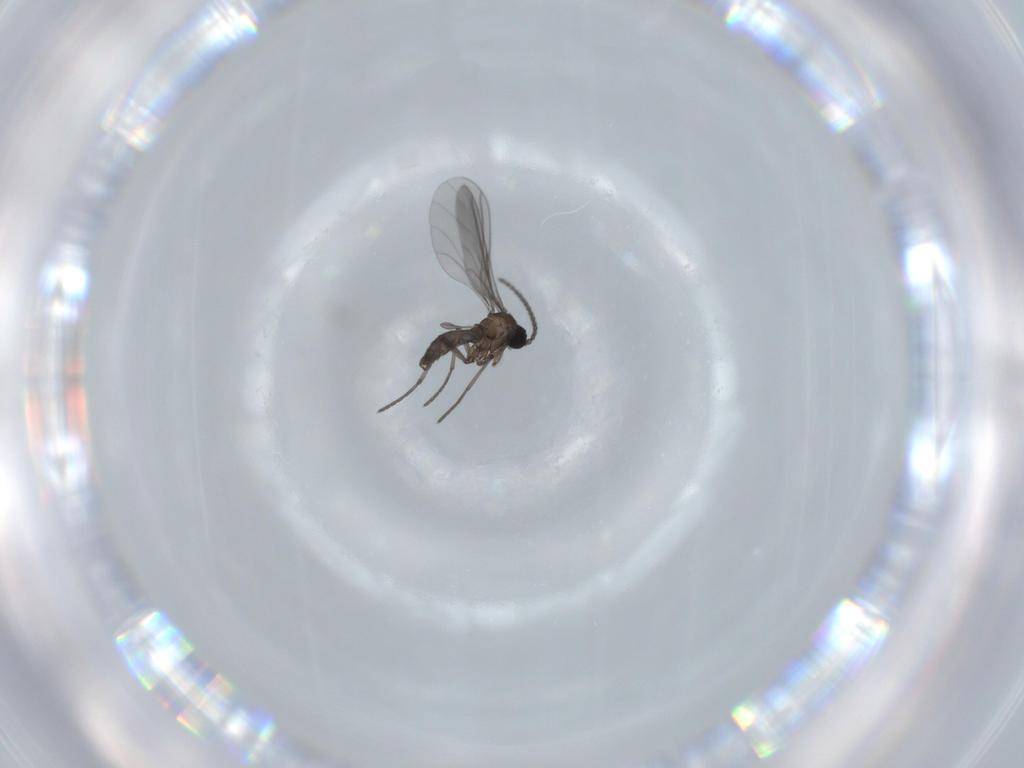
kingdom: Animalia
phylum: Arthropoda
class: Insecta
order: Diptera
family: Sciaridae
